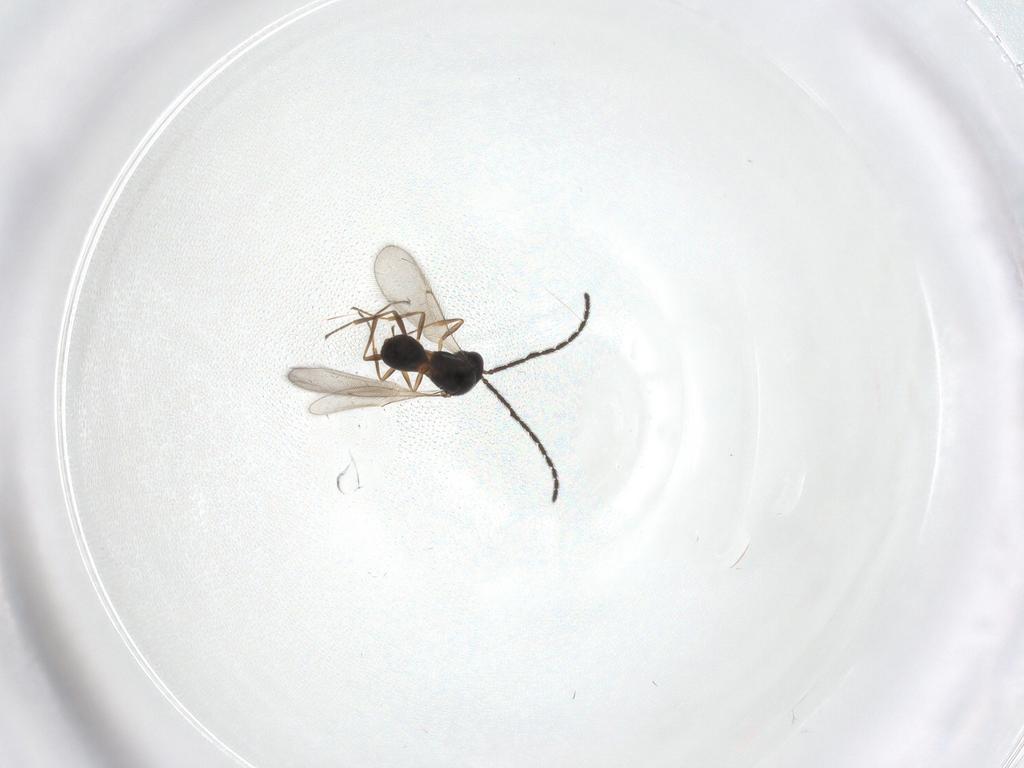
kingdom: Animalia
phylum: Arthropoda
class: Insecta
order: Hymenoptera
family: Scelionidae
